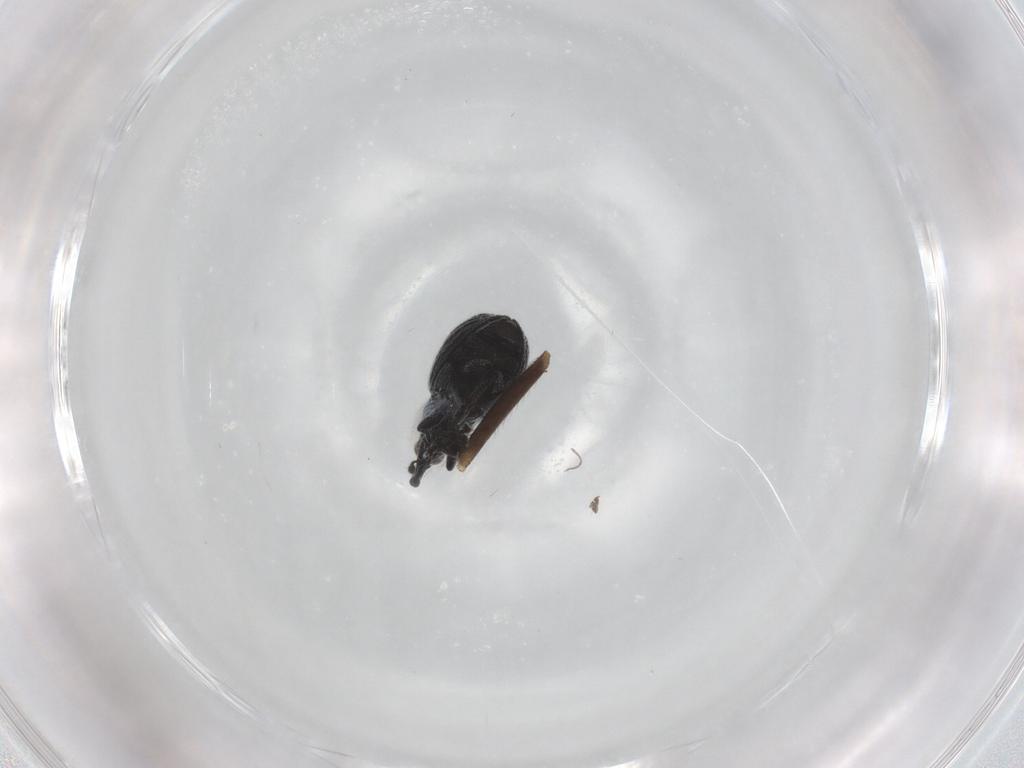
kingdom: Animalia
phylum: Arthropoda
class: Insecta
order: Coleoptera
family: Brentidae
